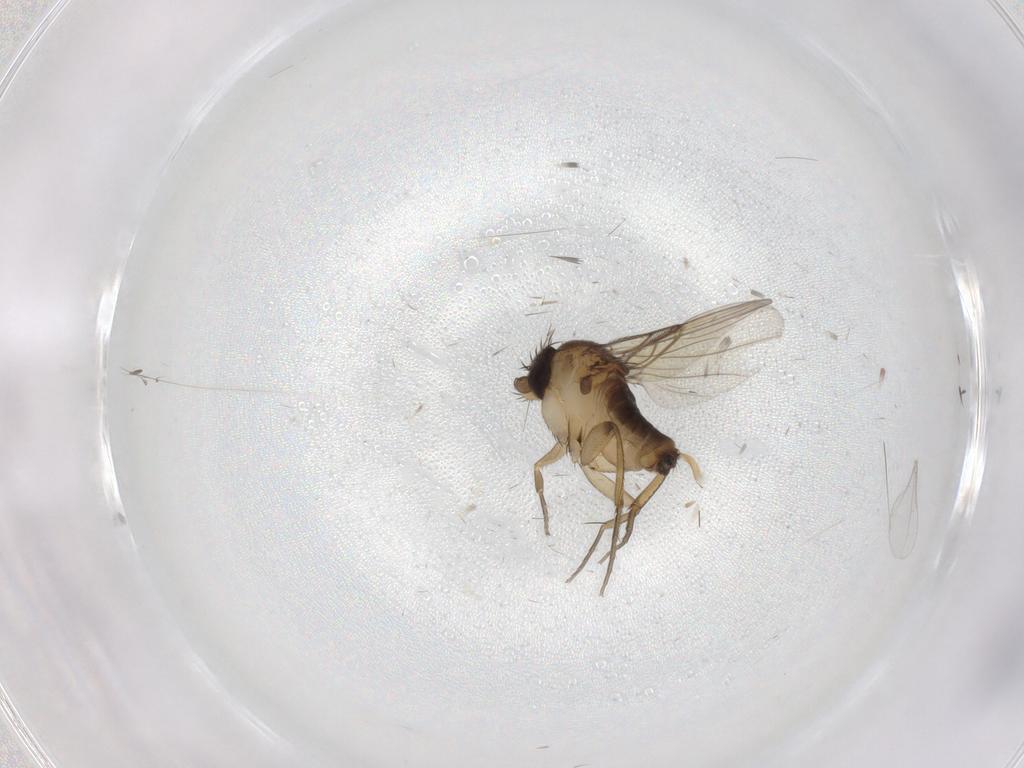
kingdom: Animalia
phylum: Arthropoda
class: Insecta
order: Diptera
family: Phoridae
